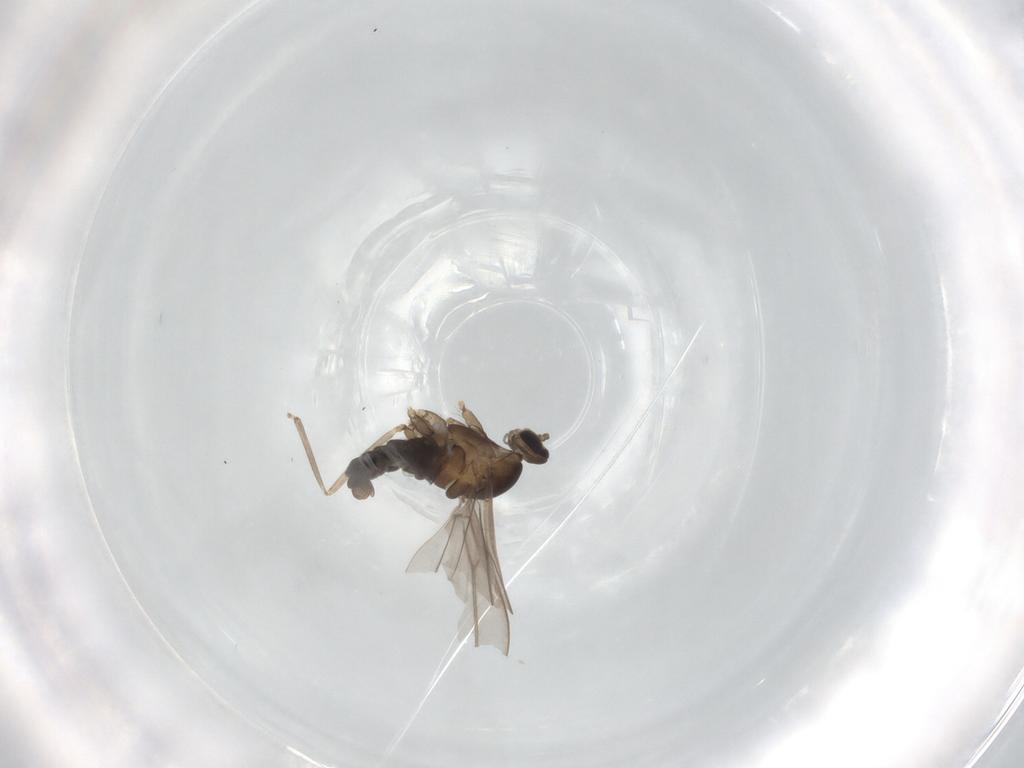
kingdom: Animalia
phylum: Arthropoda
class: Insecta
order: Diptera
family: Cecidomyiidae
